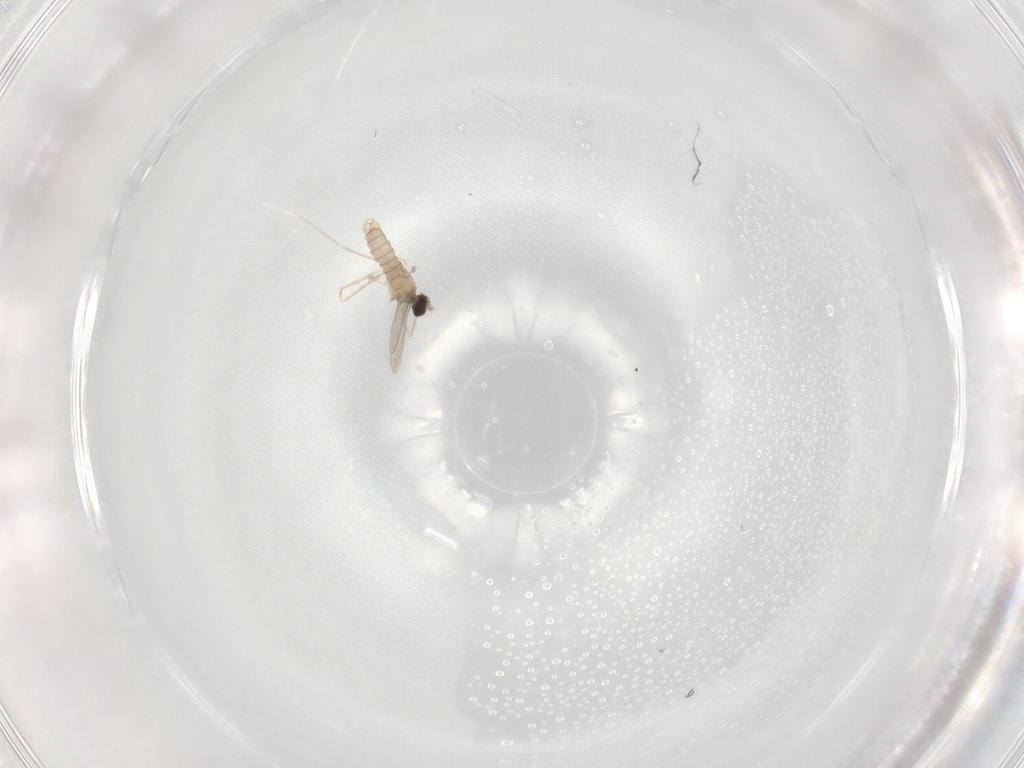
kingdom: Animalia
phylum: Arthropoda
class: Insecta
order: Diptera
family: Cecidomyiidae
